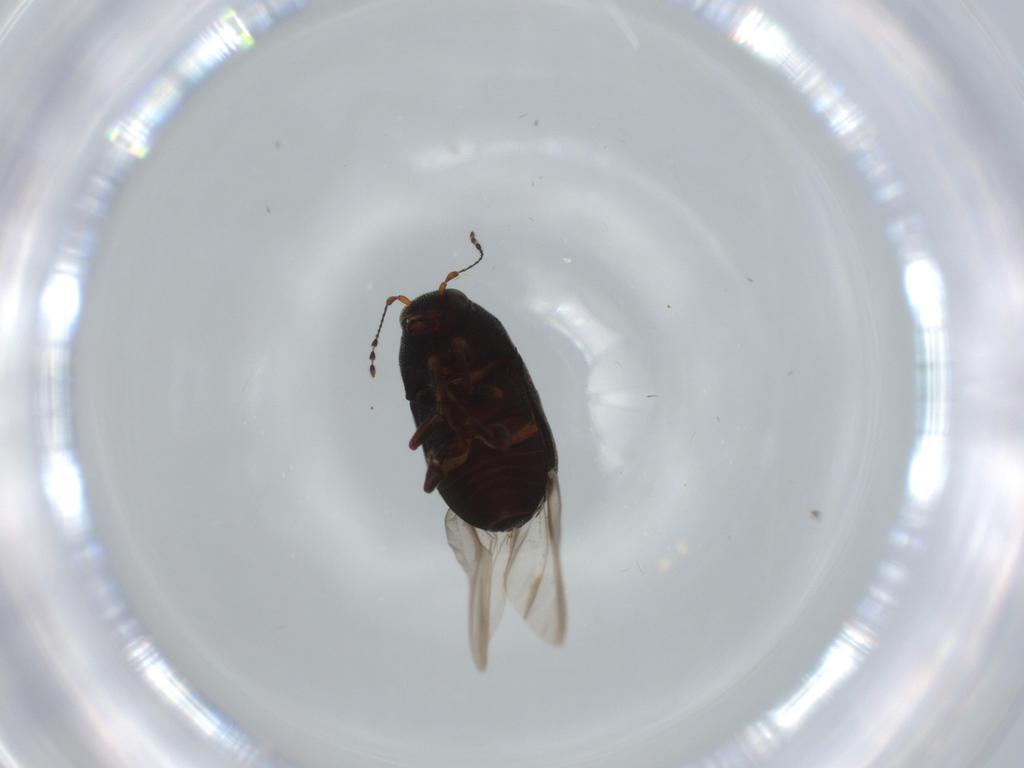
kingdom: Animalia
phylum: Arthropoda
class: Insecta
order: Coleoptera
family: Anthribidae
